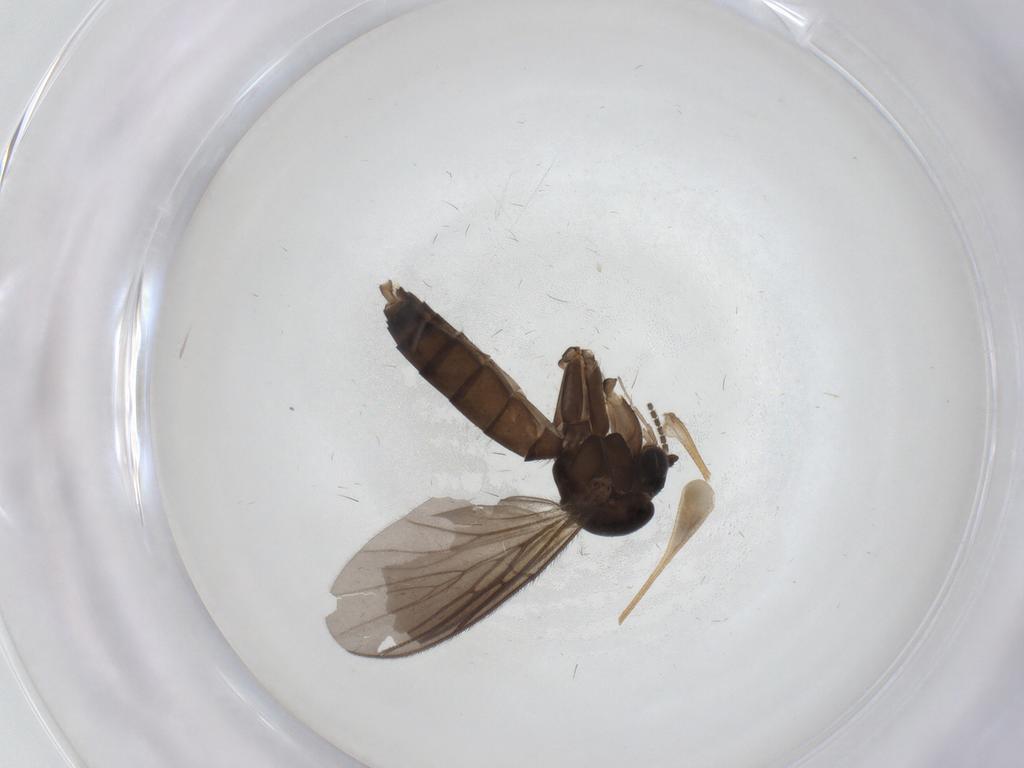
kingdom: Animalia
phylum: Arthropoda
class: Insecta
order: Diptera
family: Mycetophilidae
